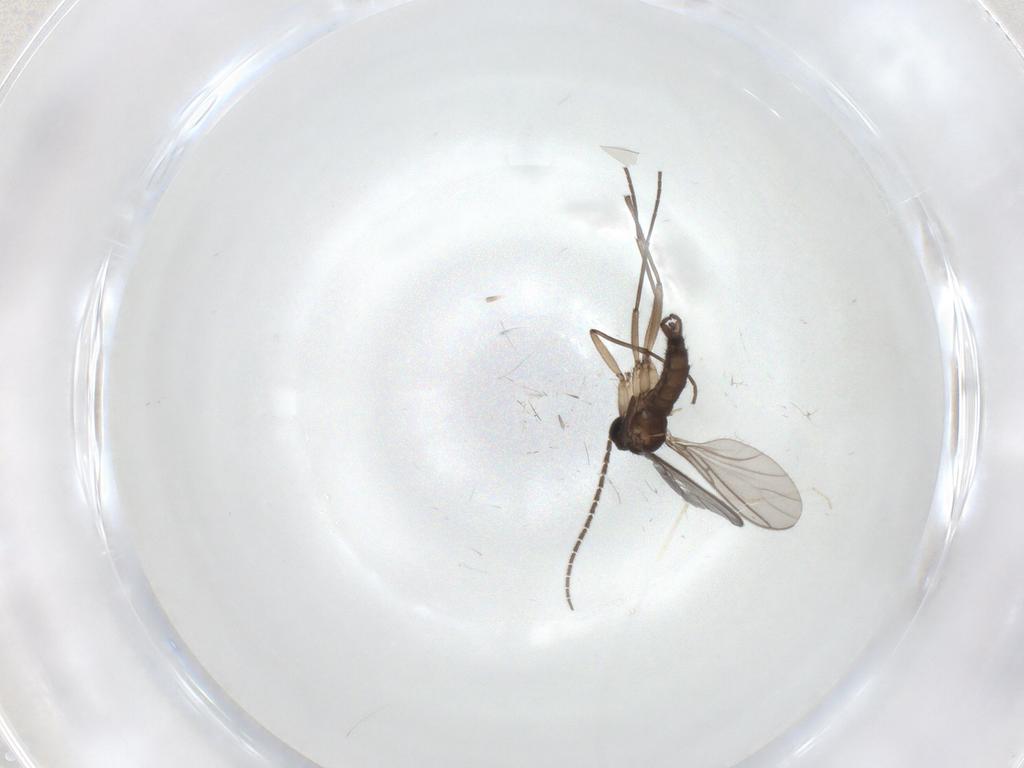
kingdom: Animalia
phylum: Arthropoda
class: Insecta
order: Diptera
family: Sciaridae
